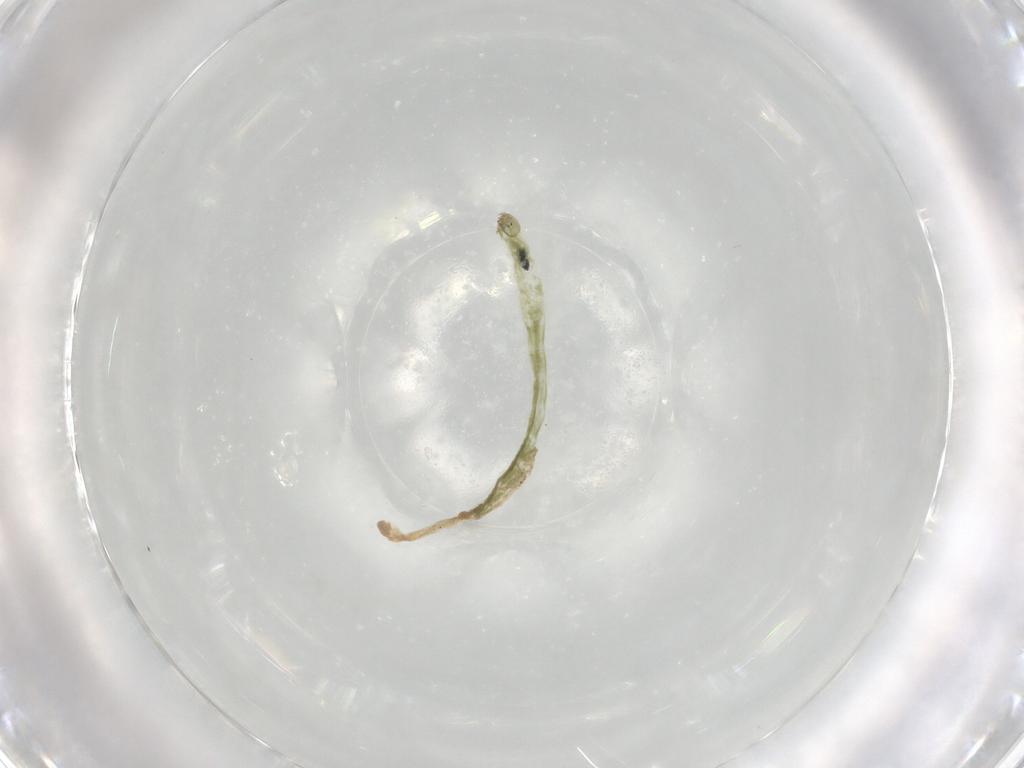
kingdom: Animalia
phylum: Arthropoda
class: Insecta
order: Diptera
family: Chironomidae
